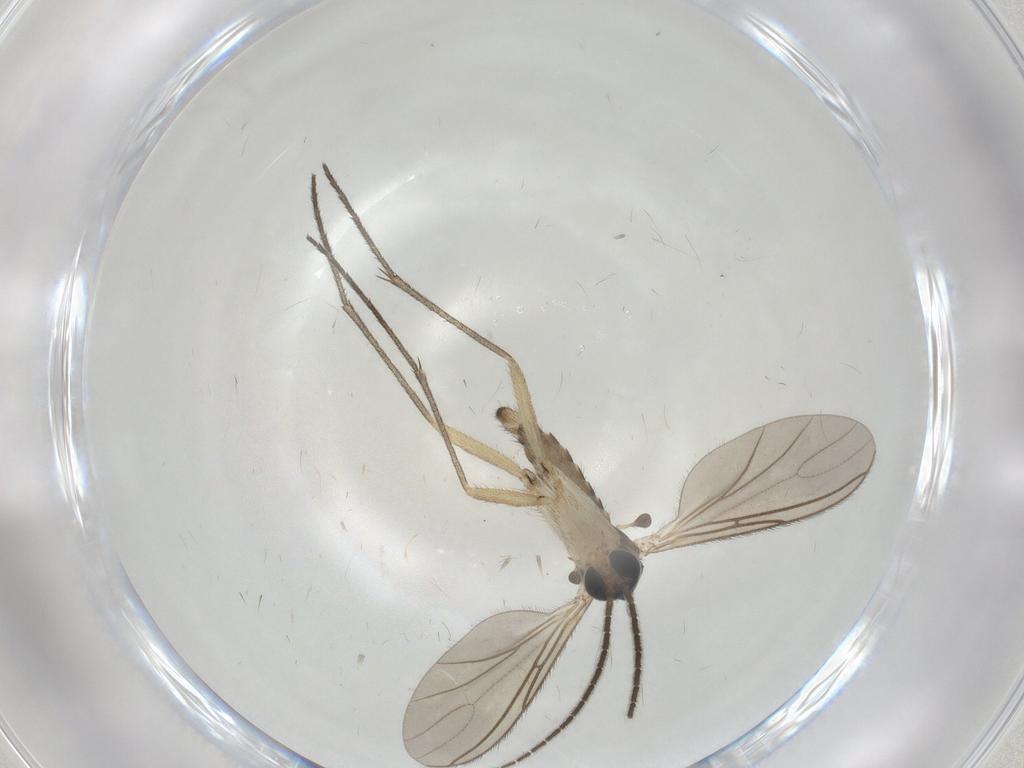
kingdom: Animalia
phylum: Arthropoda
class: Insecta
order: Diptera
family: Sciaridae
